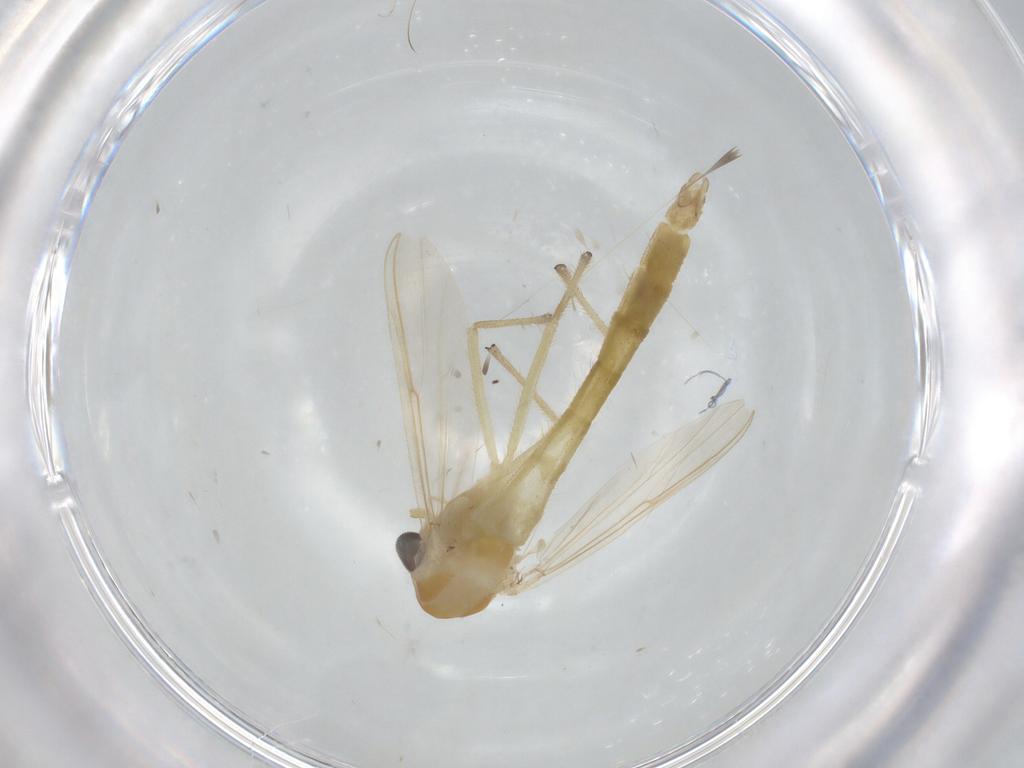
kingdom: Animalia
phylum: Arthropoda
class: Insecta
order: Diptera
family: Chironomidae
